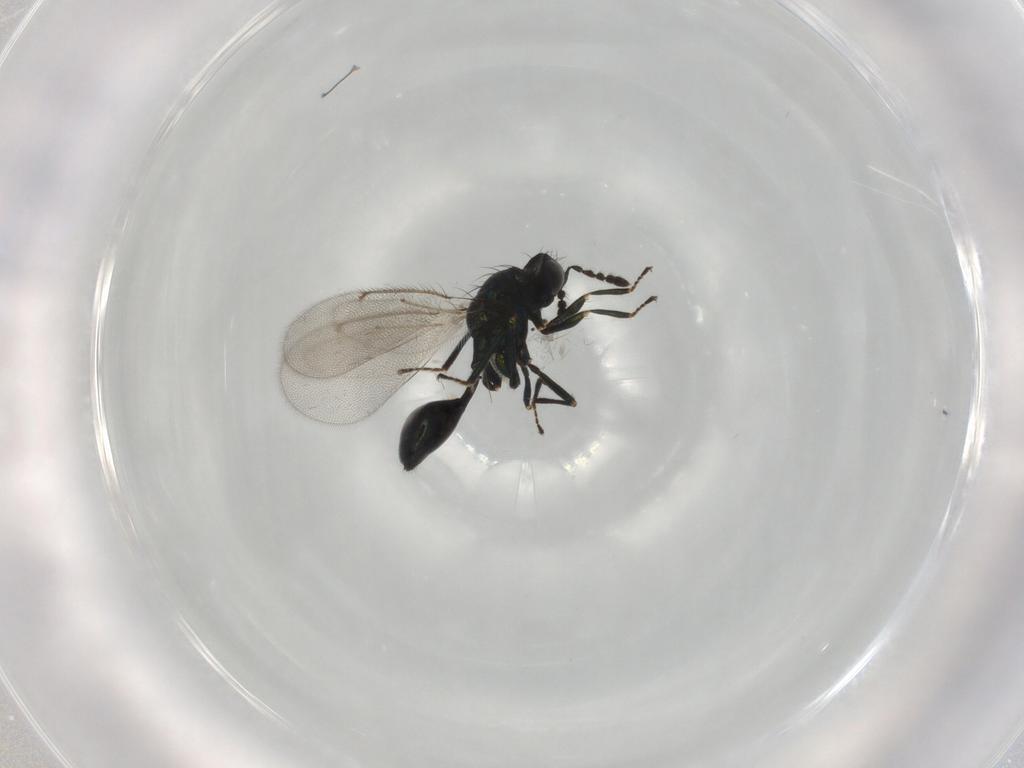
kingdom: Animalia
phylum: Arthropoda
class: Insecta
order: Hymenoptera
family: Eulophidae
